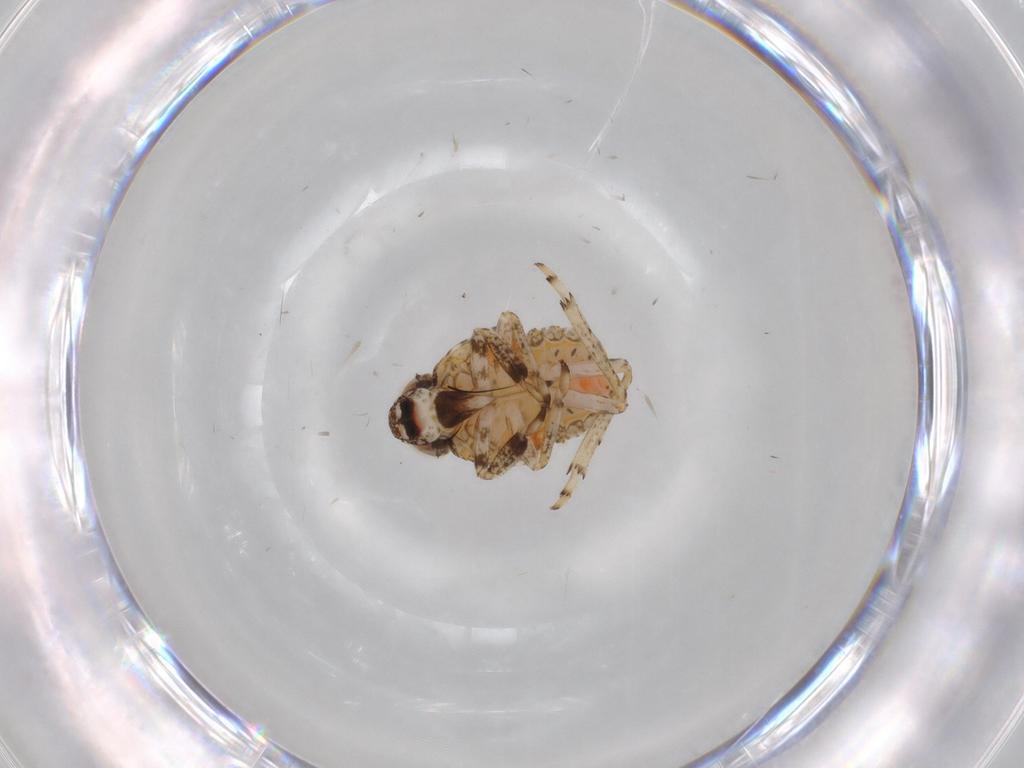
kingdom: Animalia
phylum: Arthropoda
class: Insecta
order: Hemiptera
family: Issidae
